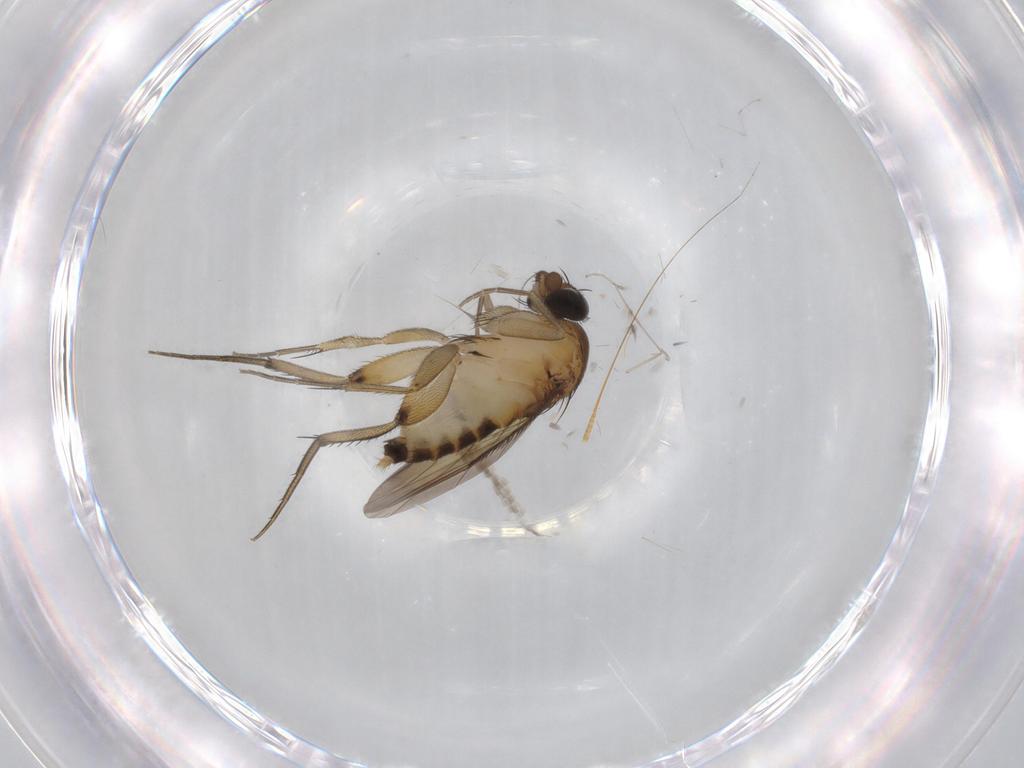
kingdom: Animalia
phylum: Arthropoda
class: Insecta
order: Diptera
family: Phoridae
